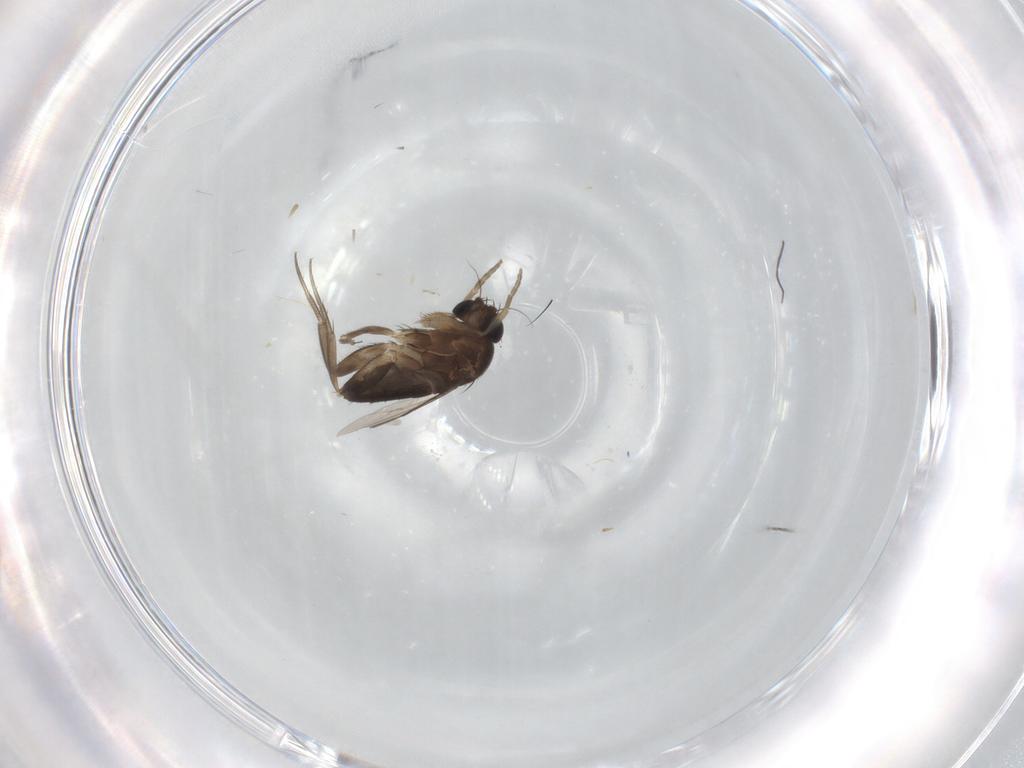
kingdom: Animalia
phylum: Arthropoda
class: Insecta
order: Diptera
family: Phoridae
